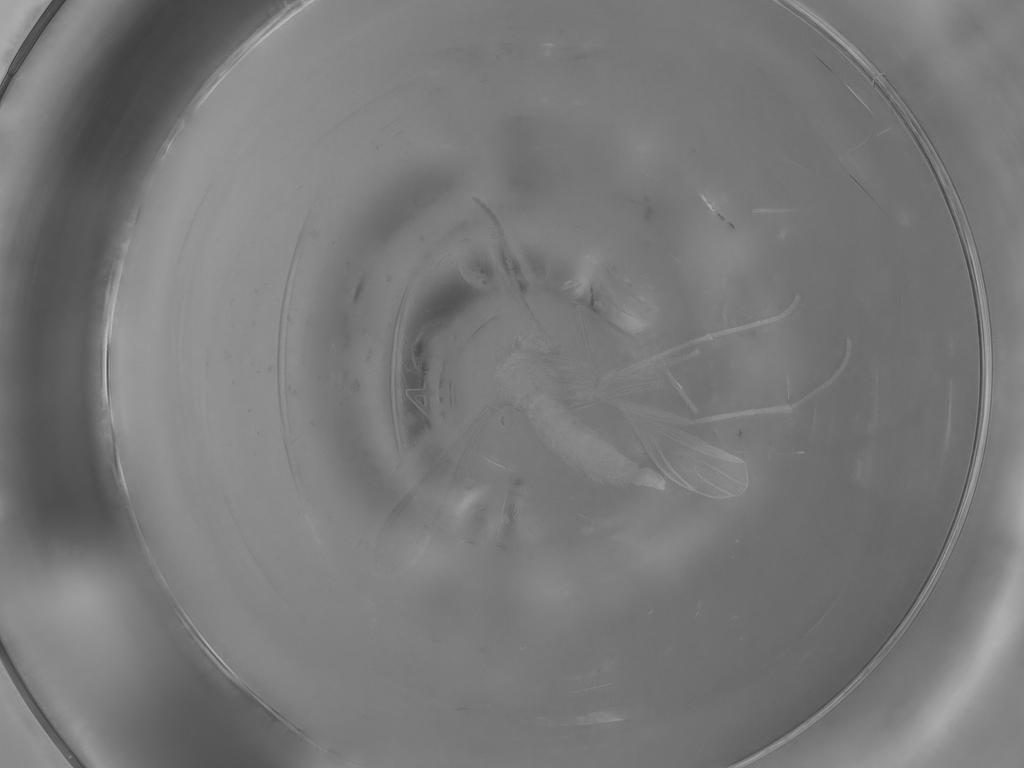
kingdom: Animalia
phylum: Arthropoda
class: Insecta
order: Diptera
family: Culicidae
